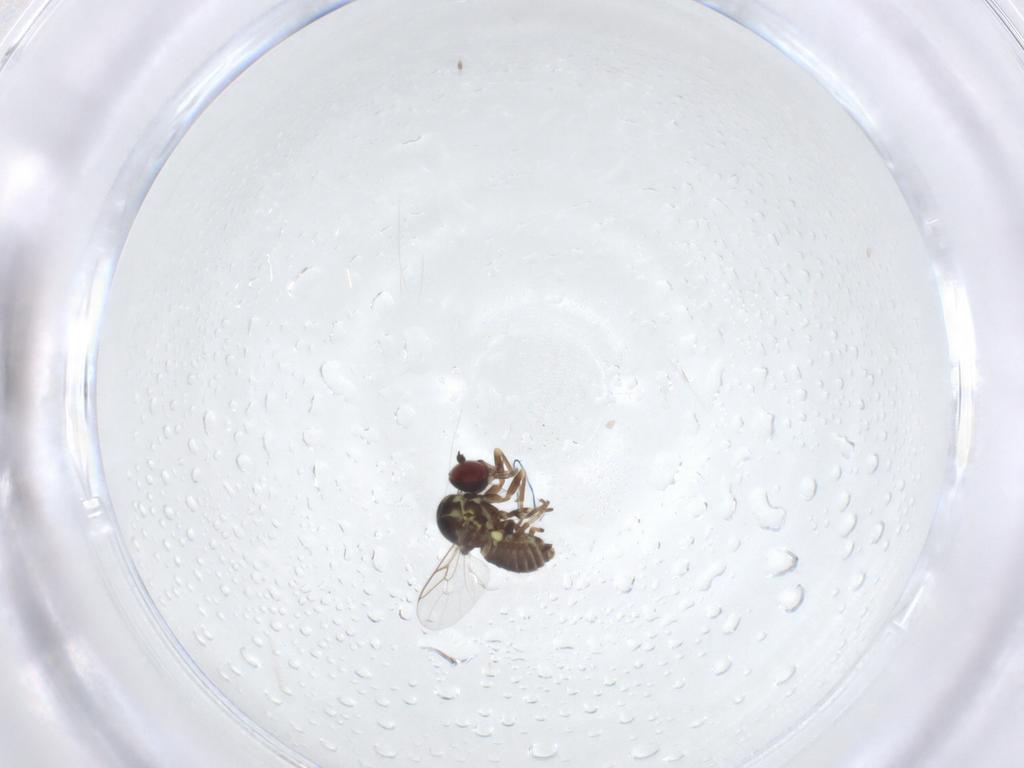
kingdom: Animalia
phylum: Arthropoda
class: Insecta
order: Diptera
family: Mythicomyiidae
